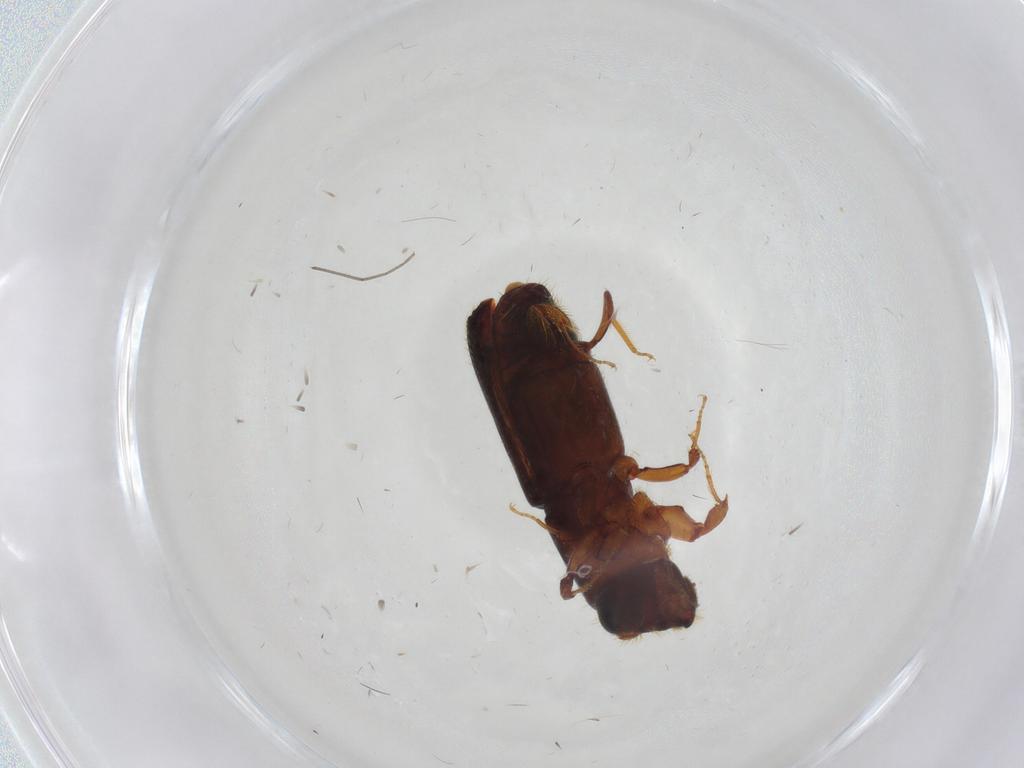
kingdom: Animalia
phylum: Arthropoda
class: Insecta
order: Coleoptera
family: Curculionidae
